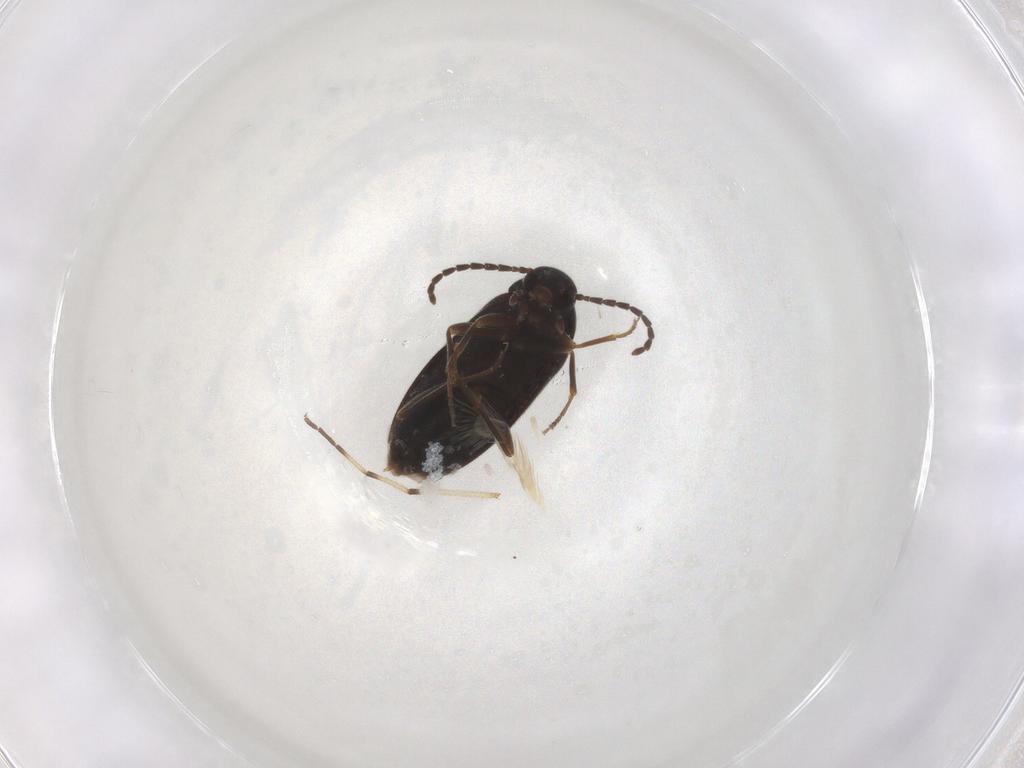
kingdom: Animalia
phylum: Arthropoda
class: Insecta
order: Coleoptera
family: Scraptiidae
